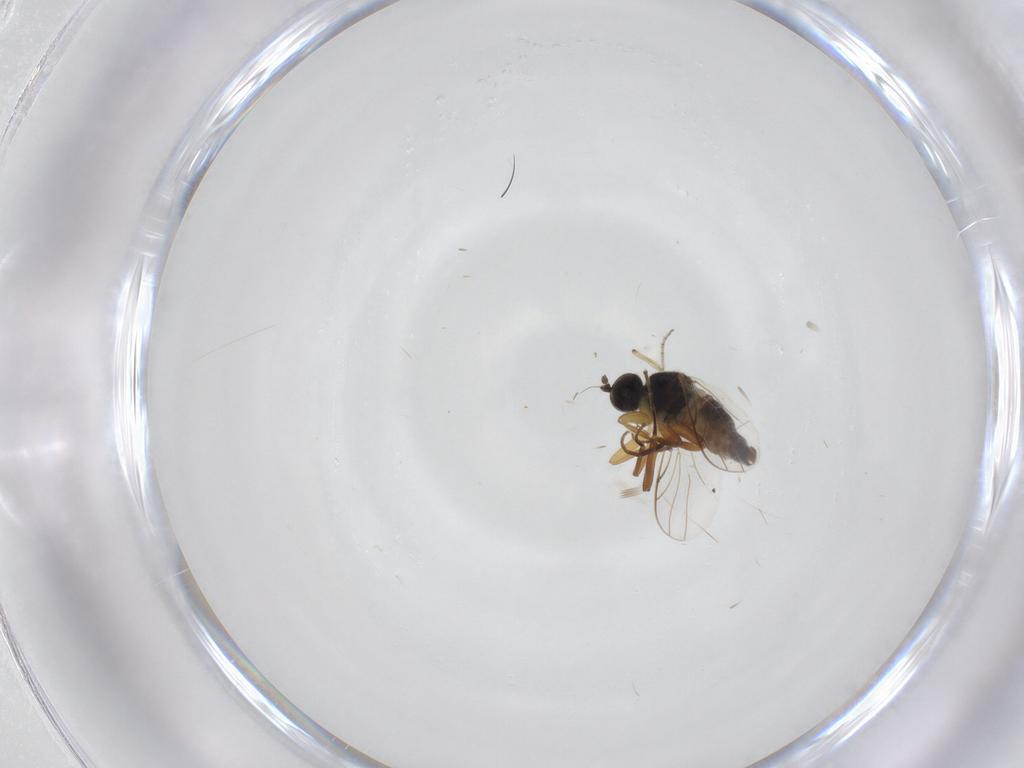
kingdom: Animalia
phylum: Arthropoda
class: Insecta
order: Diptera
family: Hybotidae
